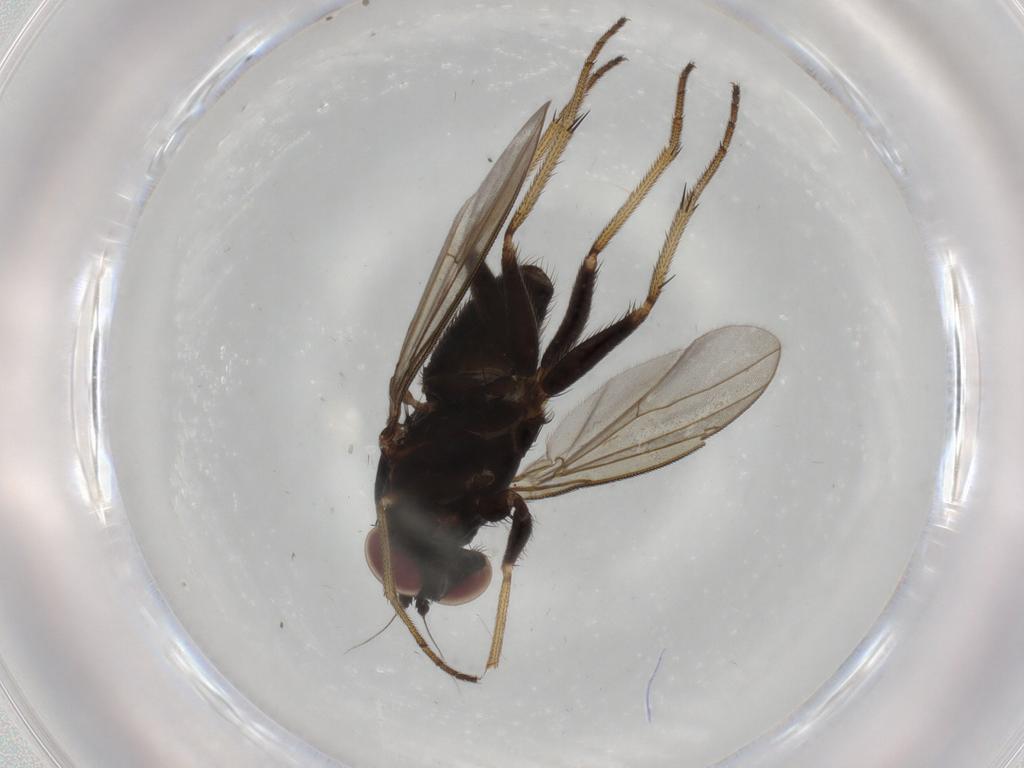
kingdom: Animalia
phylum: Arthropoda
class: Insecta
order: Diptera
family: Dolichopodidae
